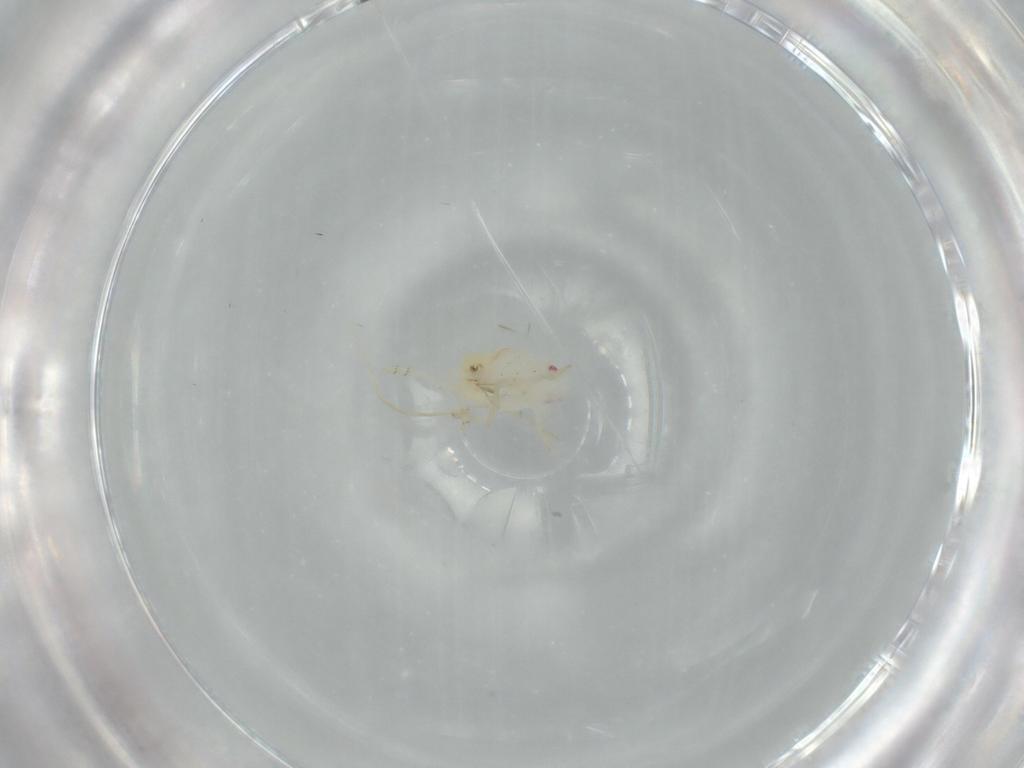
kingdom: Animalia
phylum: Arthropoda
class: Insecta
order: Hemiptera
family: Flatidae
